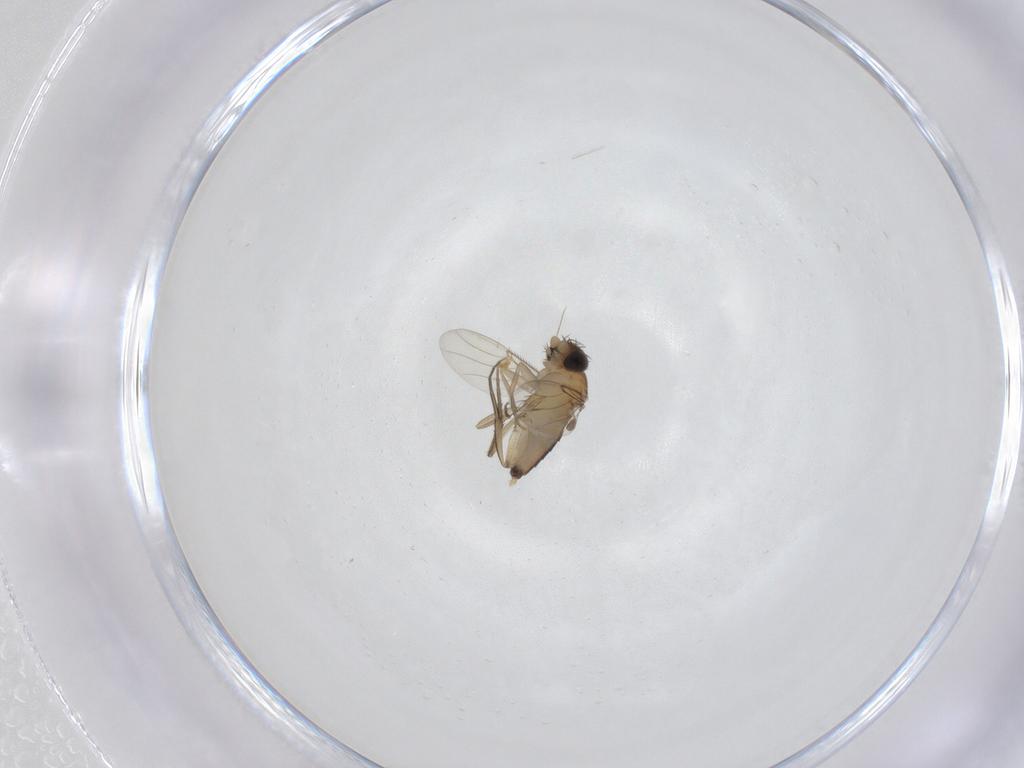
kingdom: Animalia
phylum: Arthropoda
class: Insecta
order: Diptera
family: Phoridae
